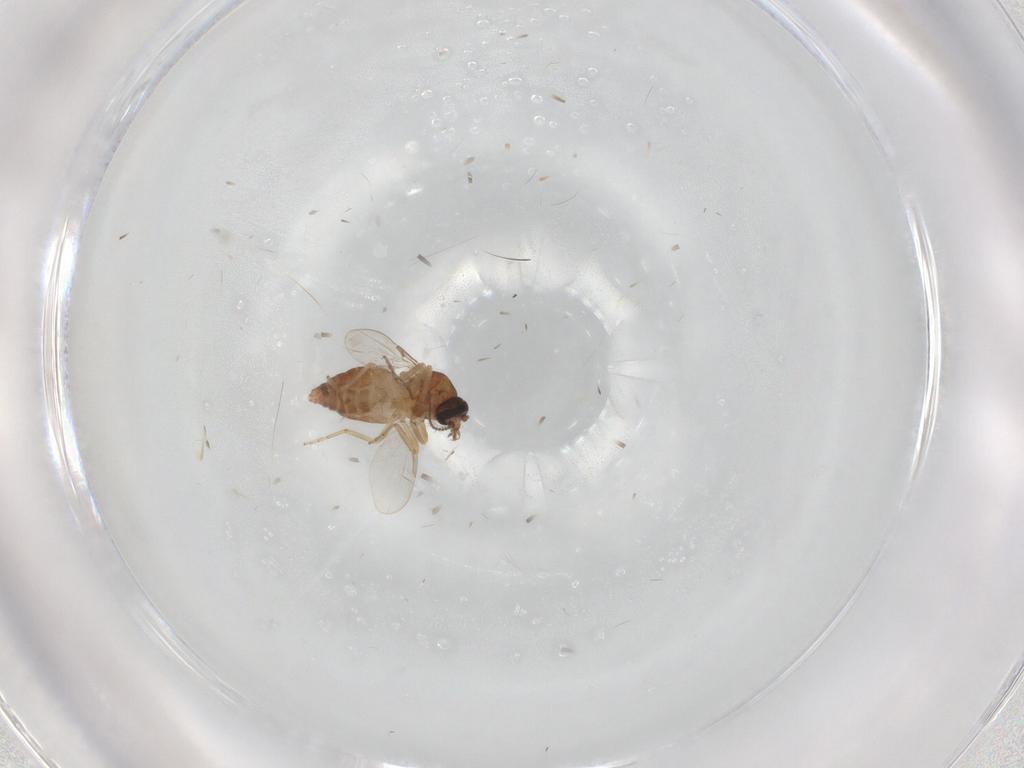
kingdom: Animalia
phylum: Arthropoda
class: Insecta
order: Diptera
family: Ceratopogonidae
